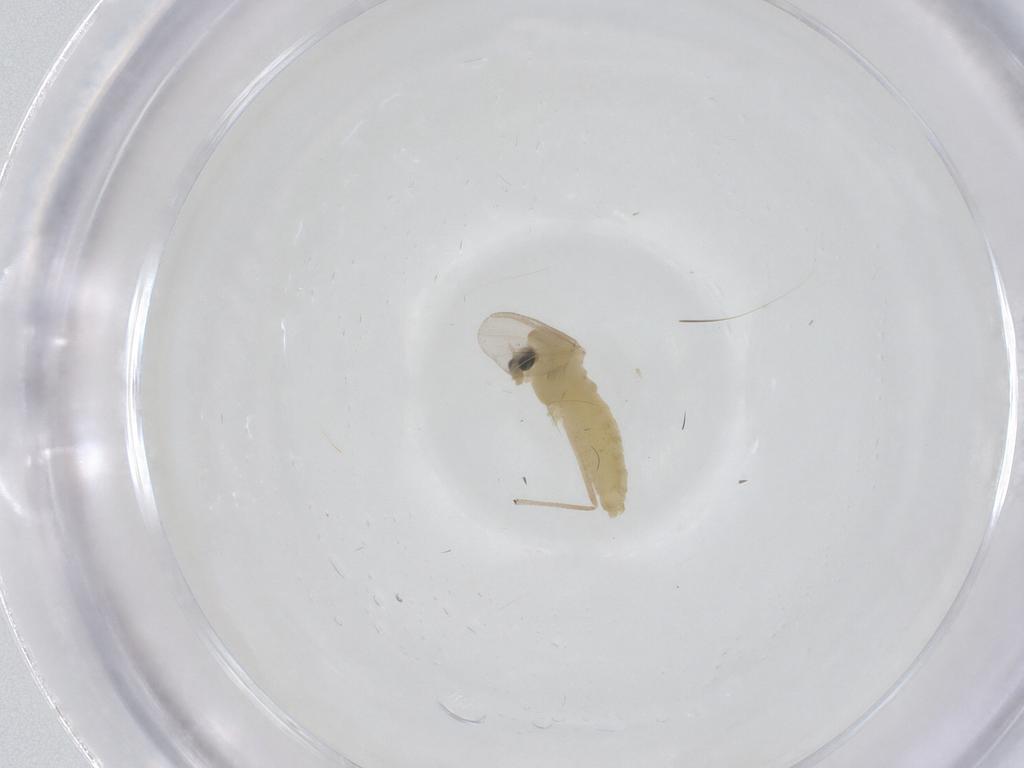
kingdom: Animalia
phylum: Arthropoda
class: Insecta
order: Diptera
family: Chironomidae
